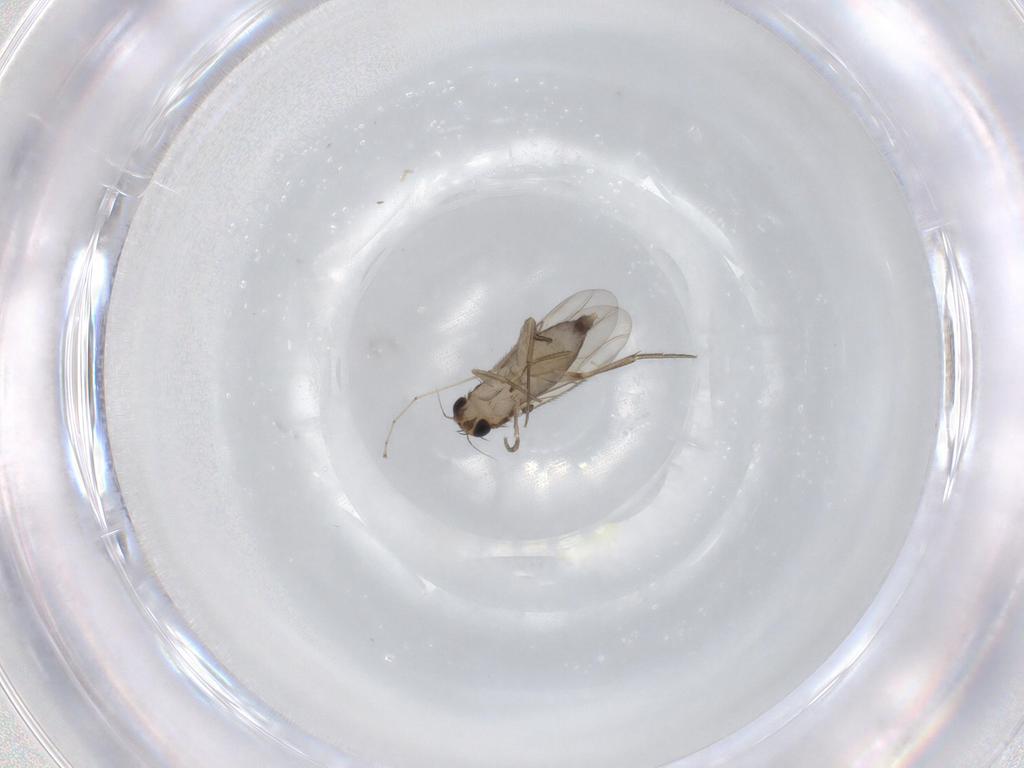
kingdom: Animalia
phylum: Arthropoda
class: Insecta
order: Diptera
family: Phoridae
